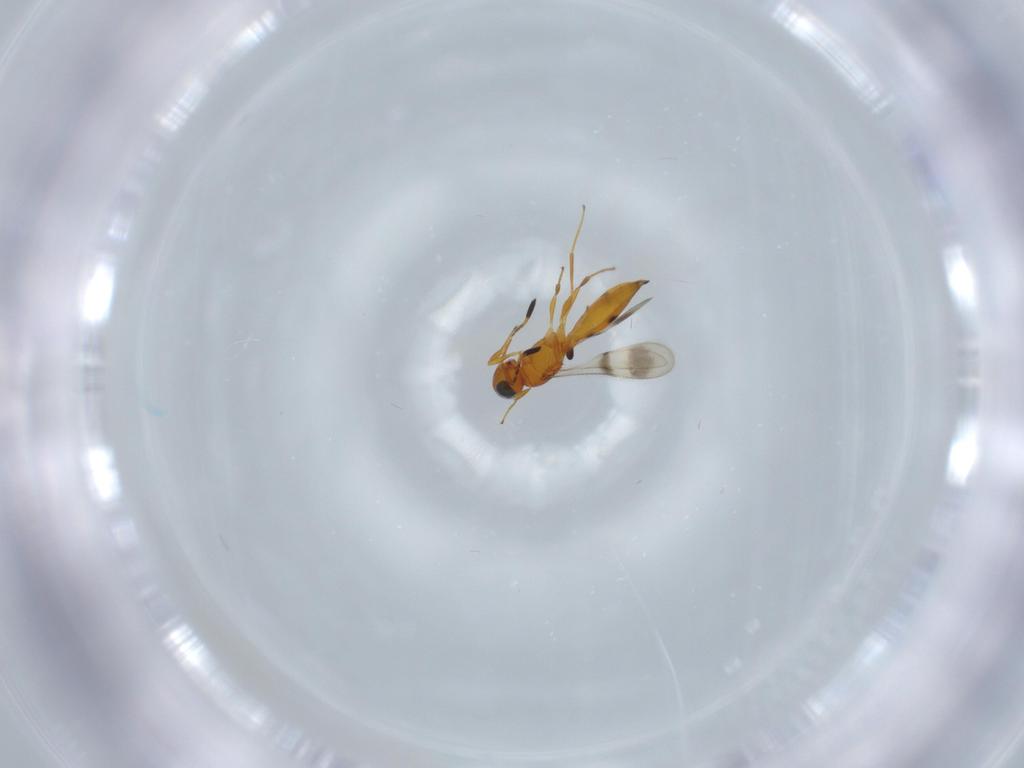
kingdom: Animalia
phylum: Arthropoda
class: Insecta
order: Hymenoptera
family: Scelionidae
